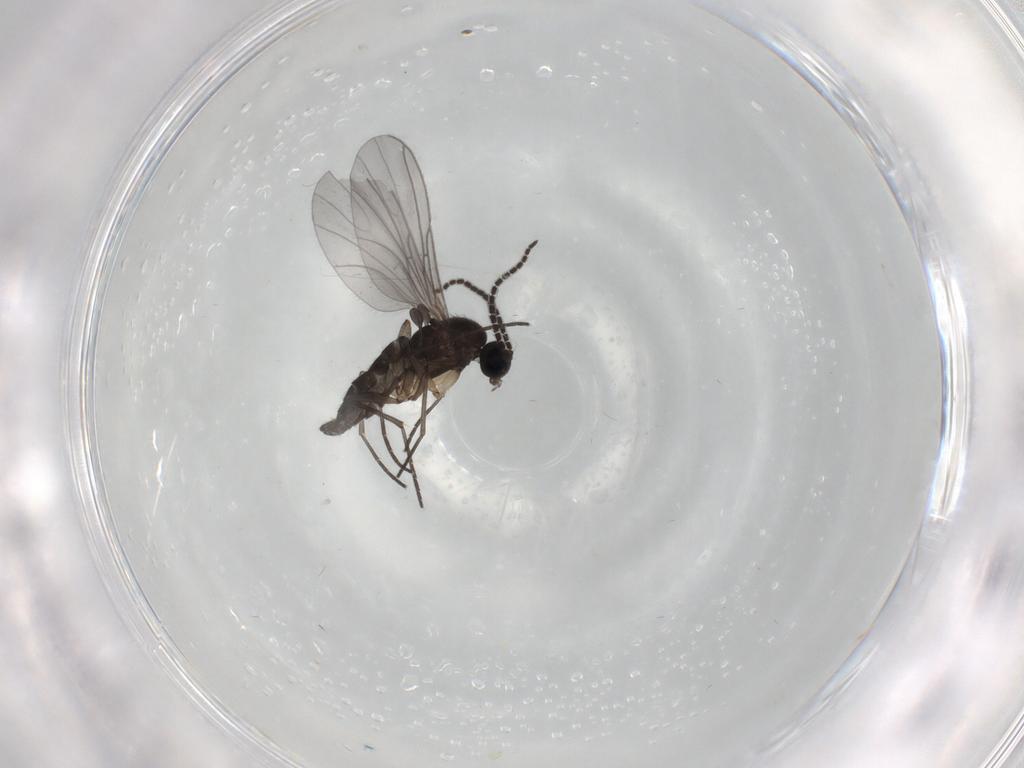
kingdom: Animalia
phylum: Arthropoda
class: Insecta
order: Diptera
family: Sciaridae
